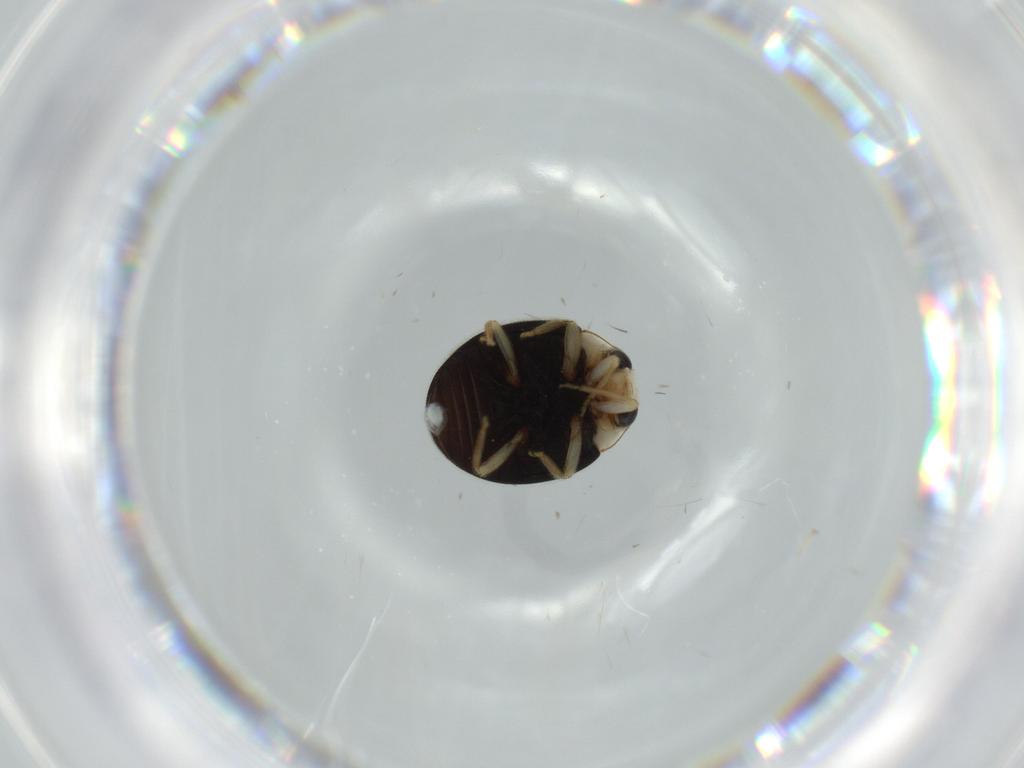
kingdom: Animalia
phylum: Arthropoda
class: Insecta
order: Coleoptera
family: Coccinellidae
